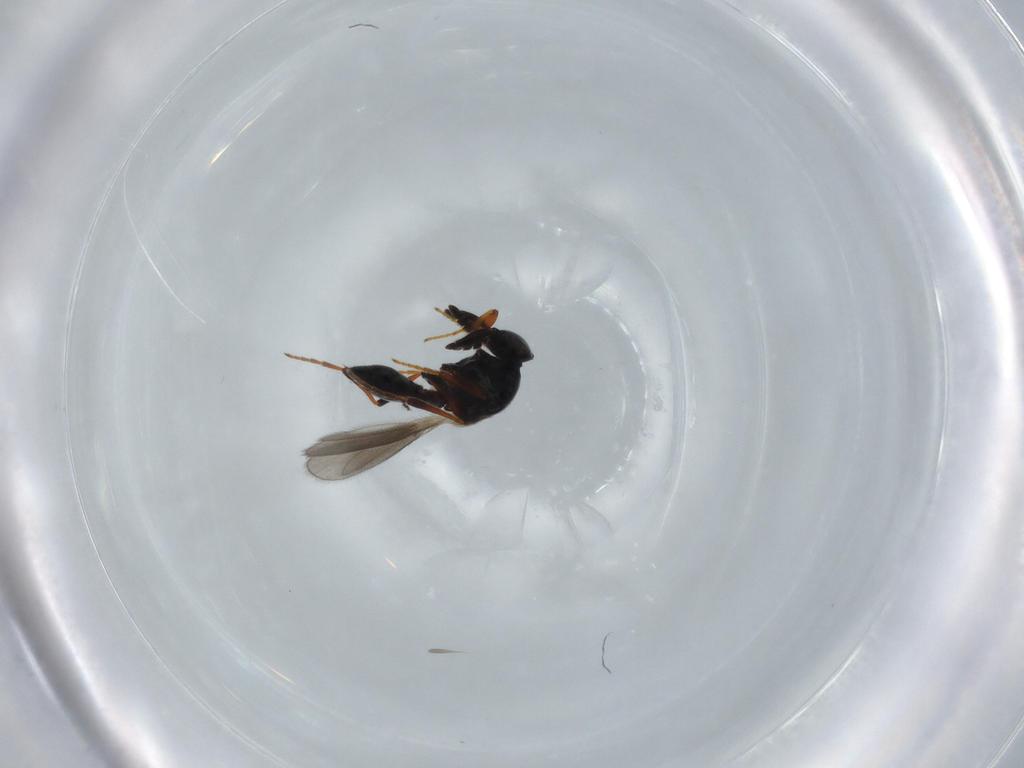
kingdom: Animalia
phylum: Arthropoda
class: Insecta
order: Hymenoptera
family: Platygastridae
